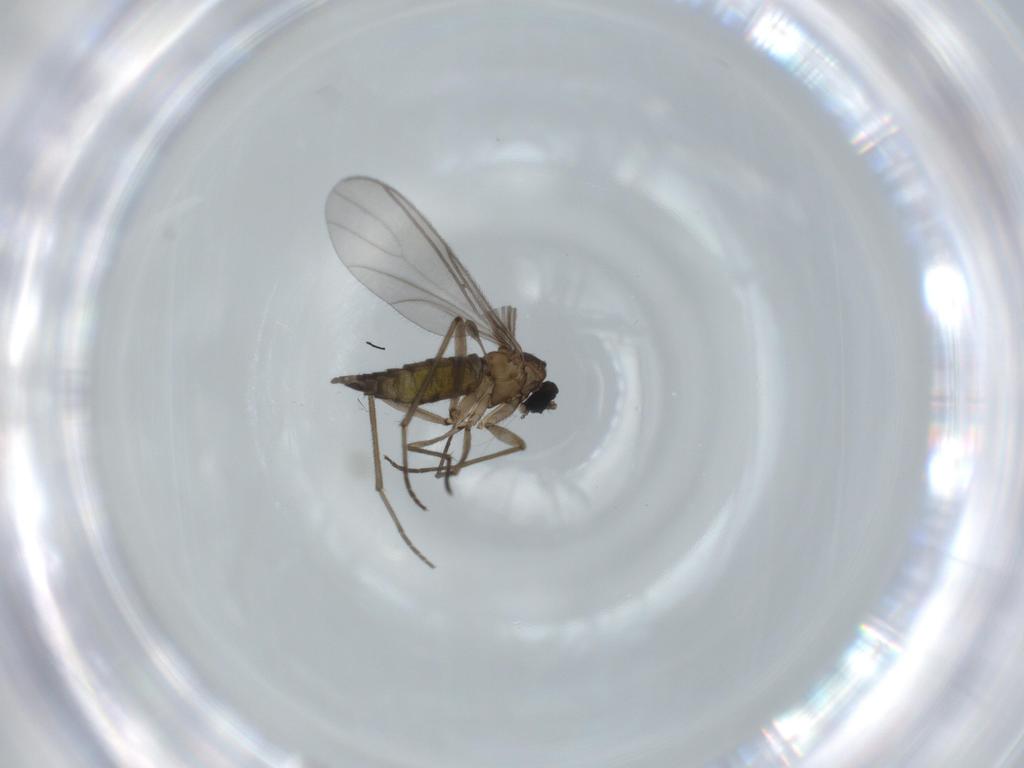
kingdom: Animalia
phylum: Arthropoda
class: Insecta
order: Diptera
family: Sciaridae
